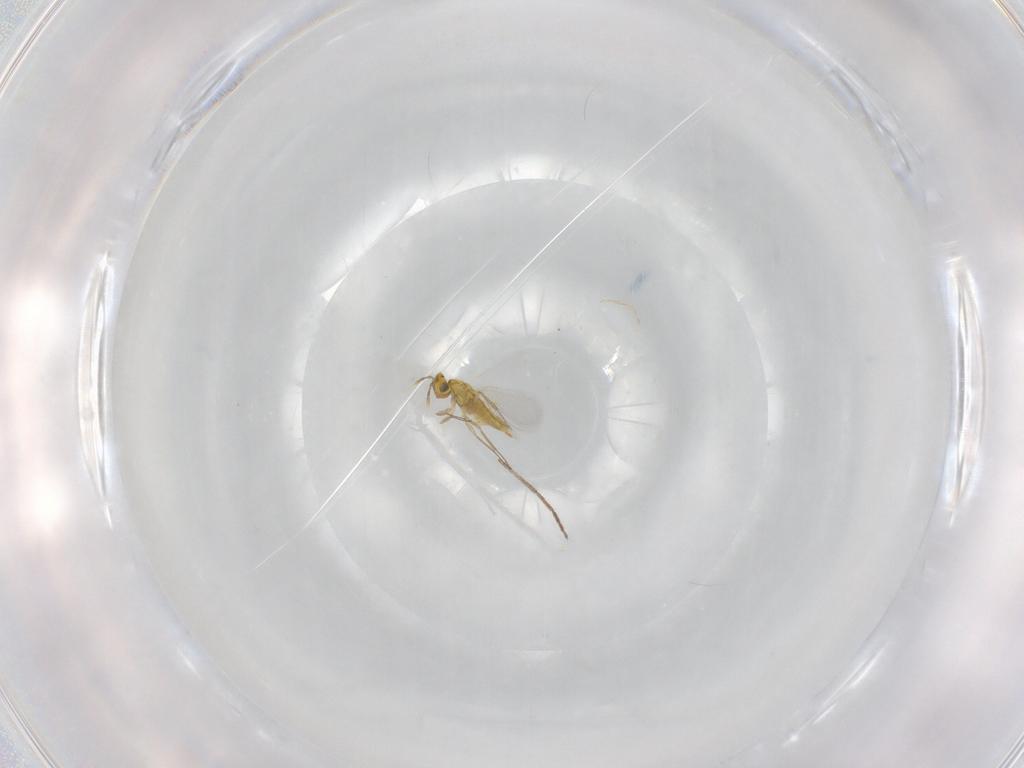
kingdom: Animalia
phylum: Arthropoda
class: Insecta
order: Hymenoptera
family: Aphelinidae
